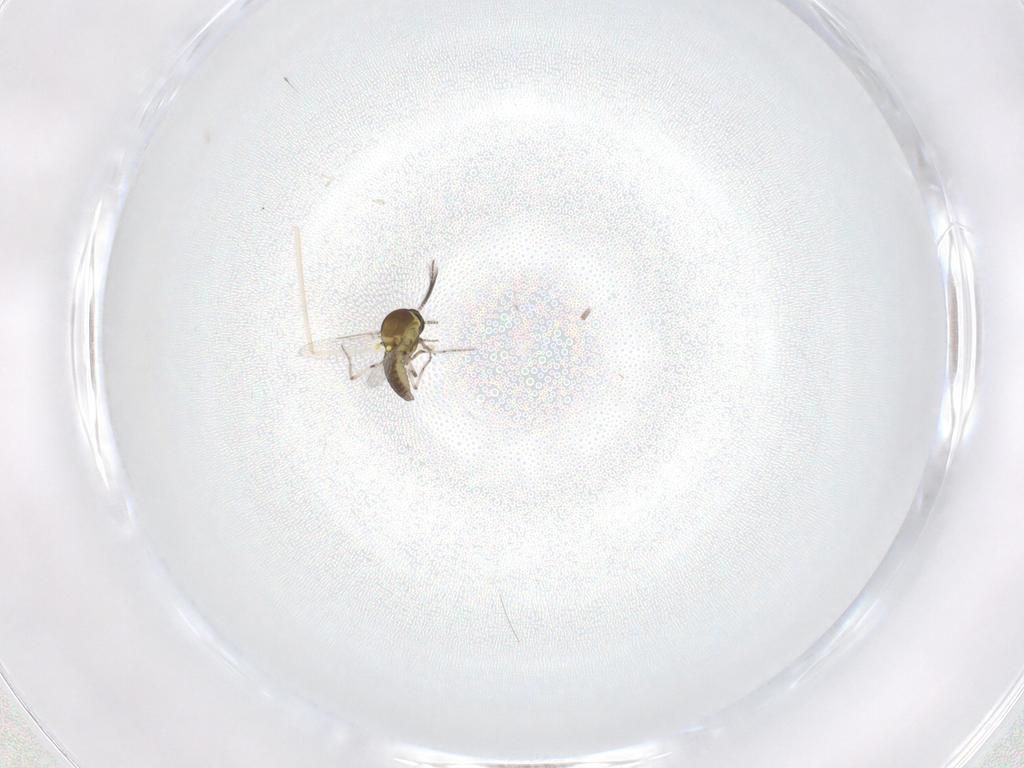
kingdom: Animalia
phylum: Arthropoda
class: Insecta
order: Diptera
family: Ceratopogonidae
